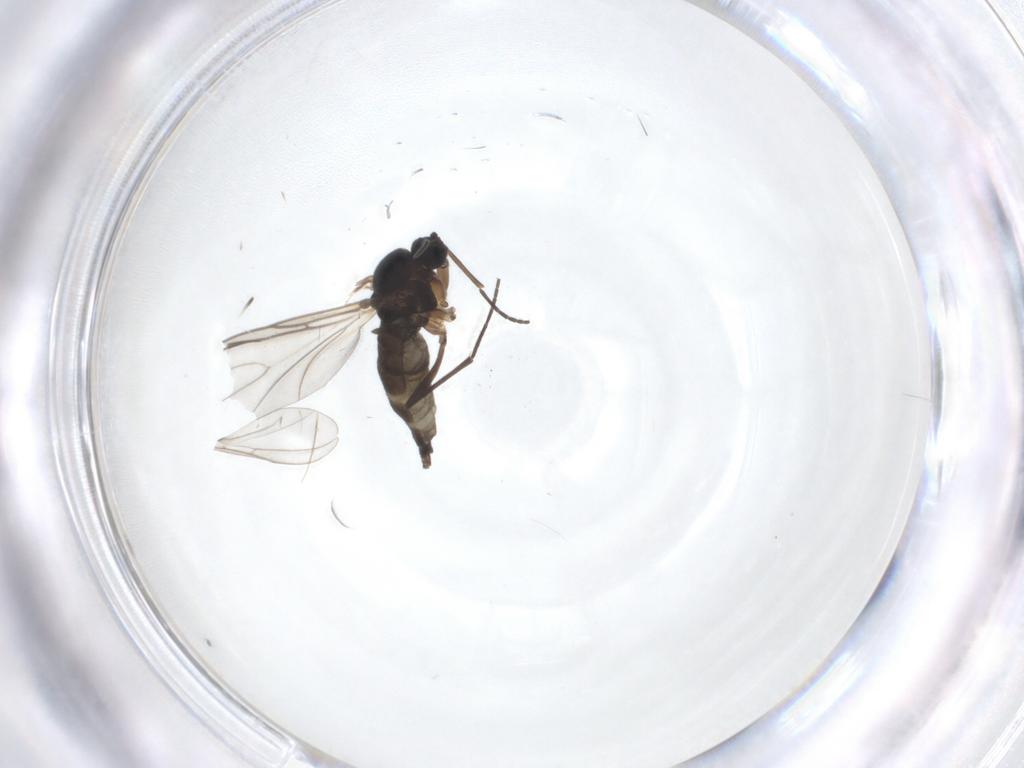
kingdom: Animalia
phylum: Arthropoda
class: Insecta
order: Diptera
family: Sciaridae
